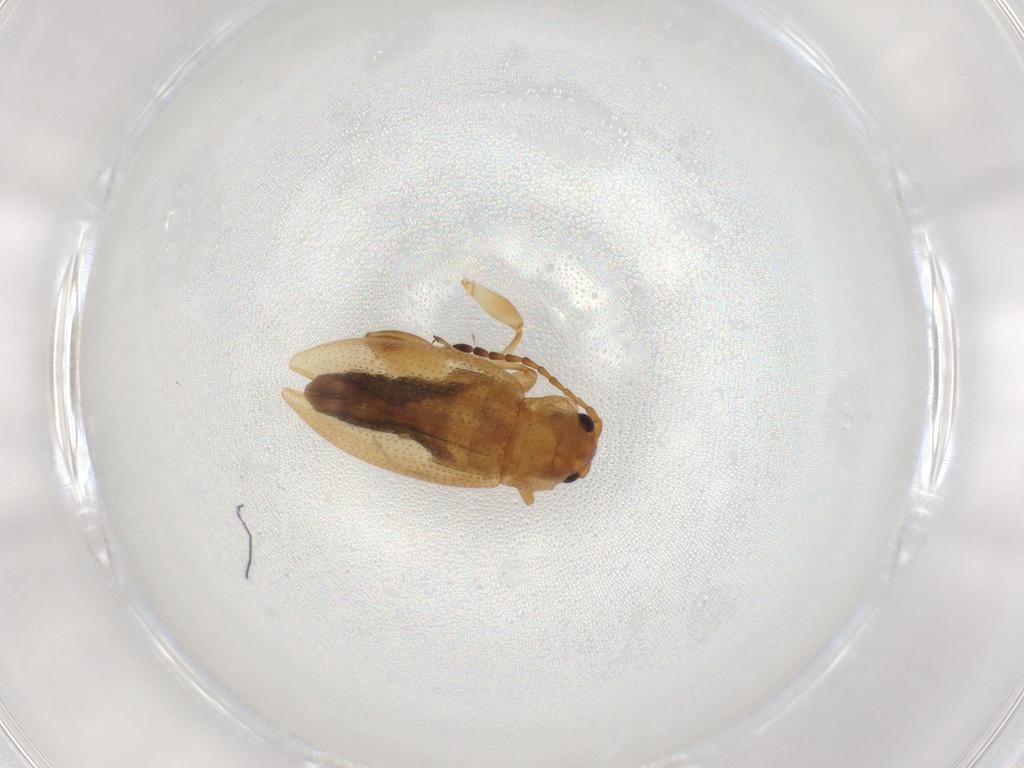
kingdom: Animalia
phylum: Arthropoda
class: Insecta
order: Coleoptera
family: Chrysomelidae
